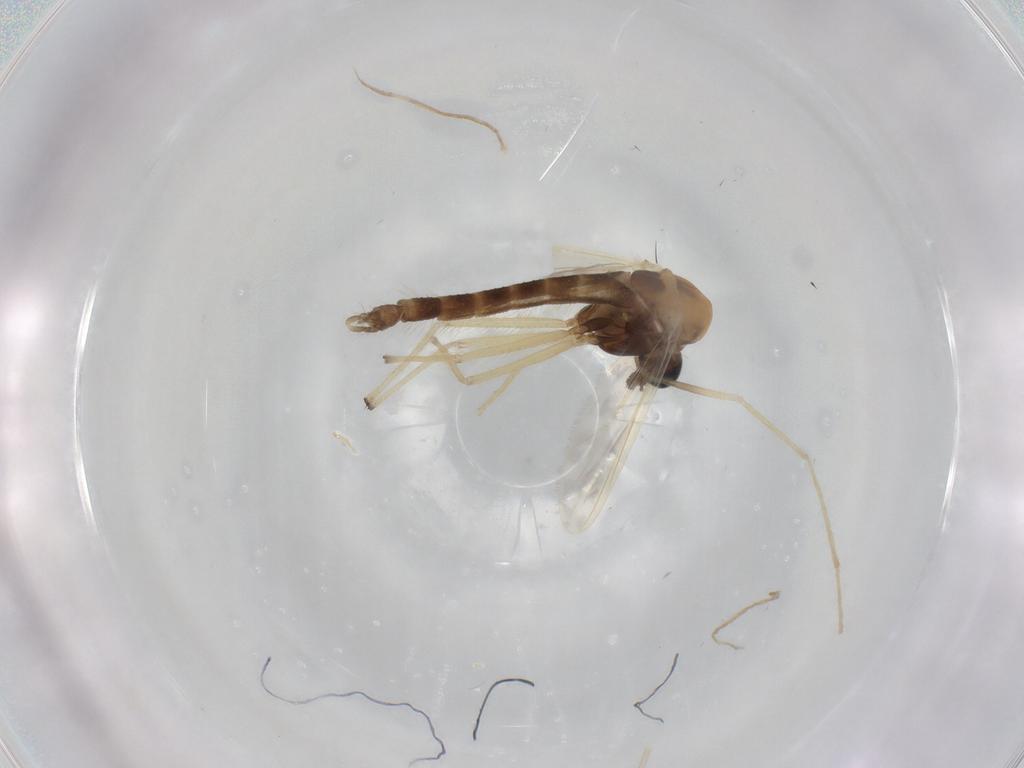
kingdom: Animalia
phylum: Arthropoda
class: Insecta
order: Diptera
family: Chironomidae
